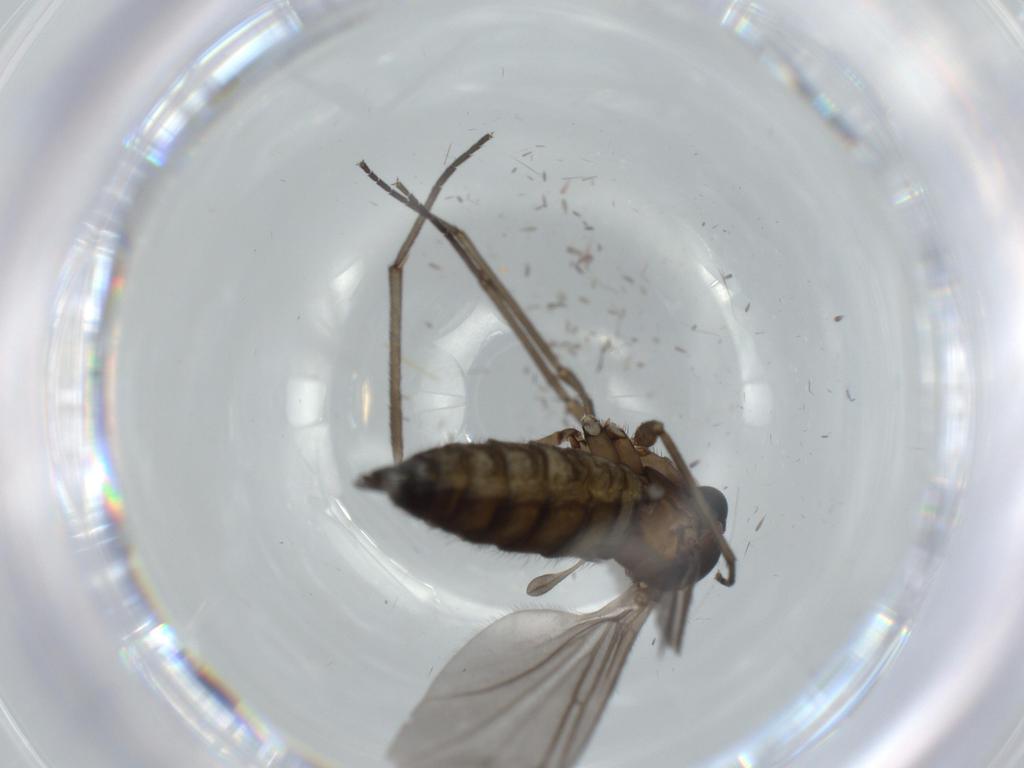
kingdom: Animalia
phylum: Arthropoda
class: Insecta
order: Diptera
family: Sciaridae
